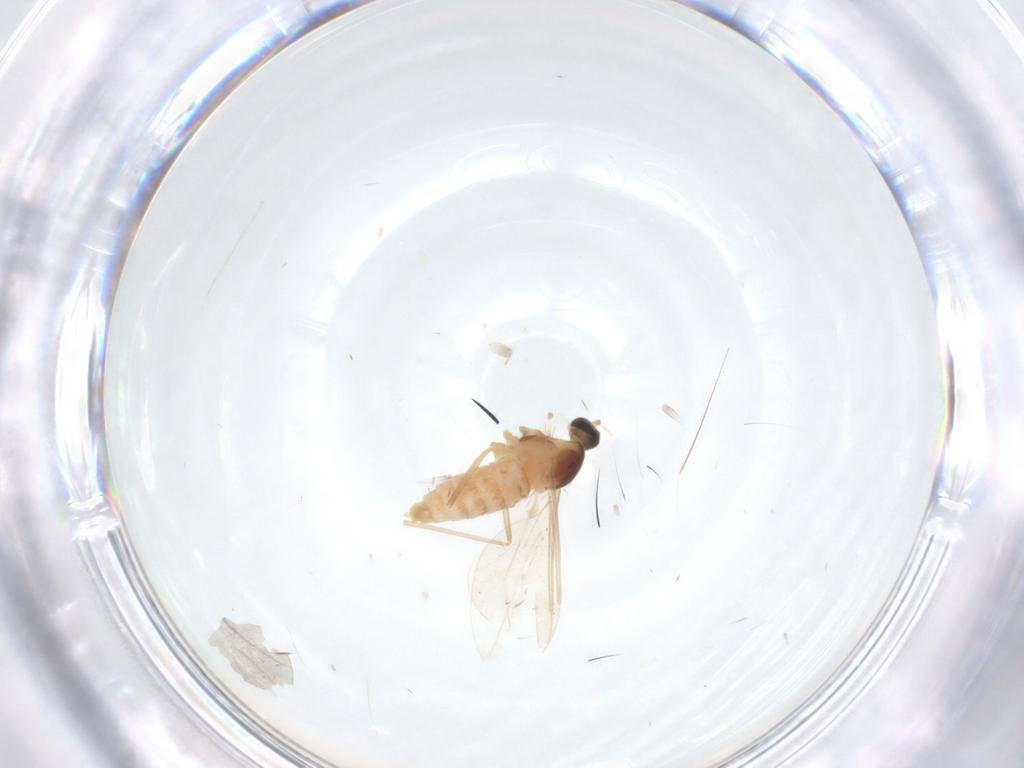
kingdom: Animalia
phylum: Arthropoda
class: Insecta
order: Diptera
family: Cecidomyiidae
